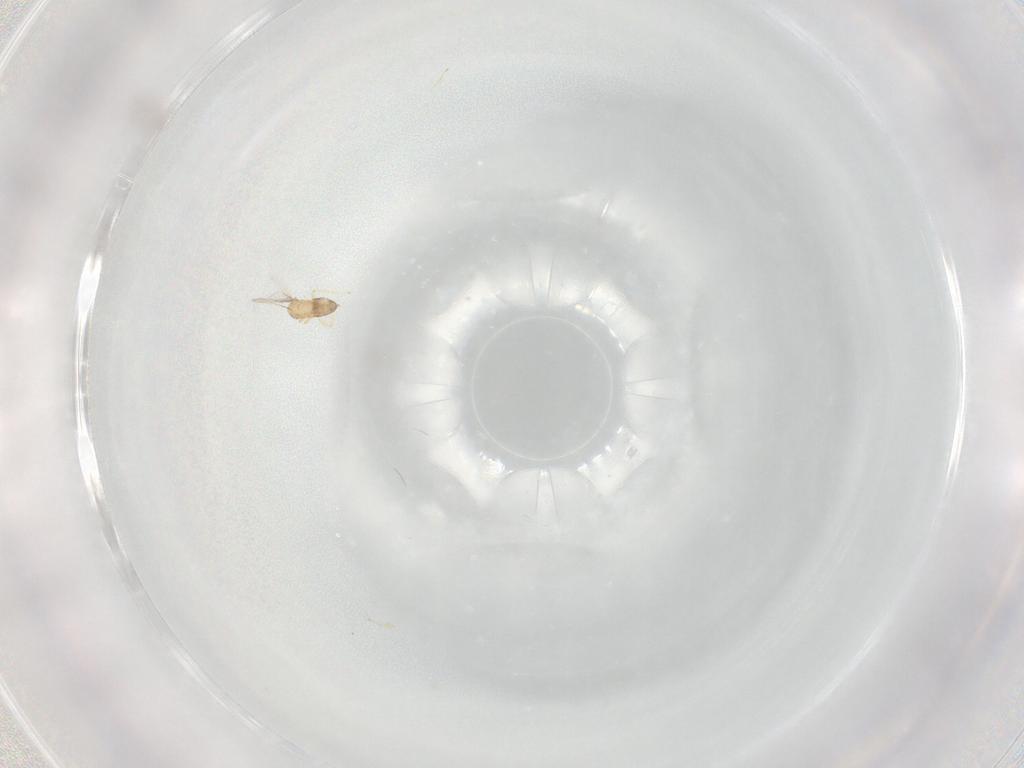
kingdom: Animalia
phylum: Arthropoda
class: Insecta
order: Hymenoptera
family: Trichogrammatidae
